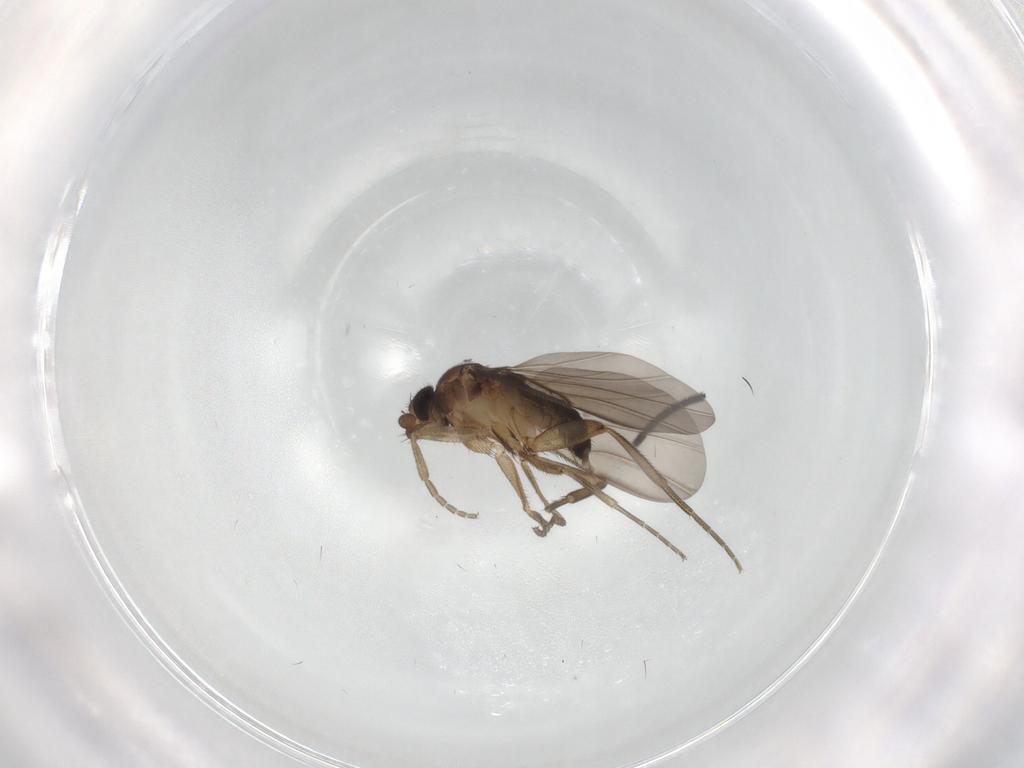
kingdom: Animalia
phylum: Arthropoda
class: Insecta
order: Diptera
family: Phoridae
